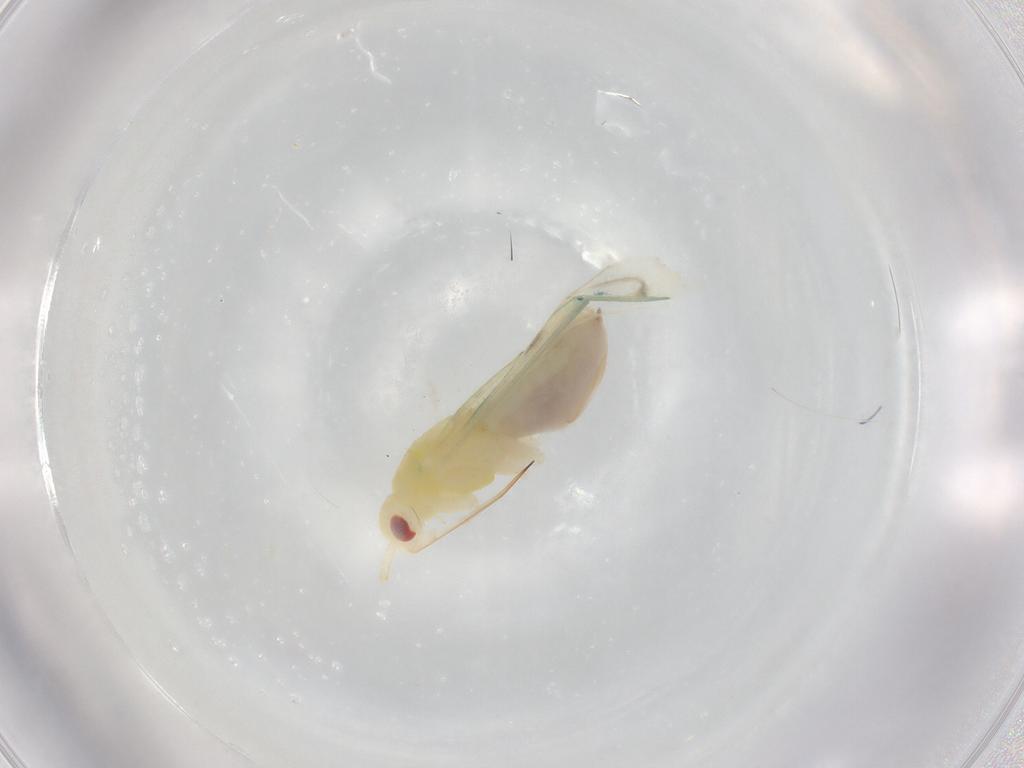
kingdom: Animalia
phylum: Arthropoda
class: Insecta
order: Hemiptera
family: Miridae
